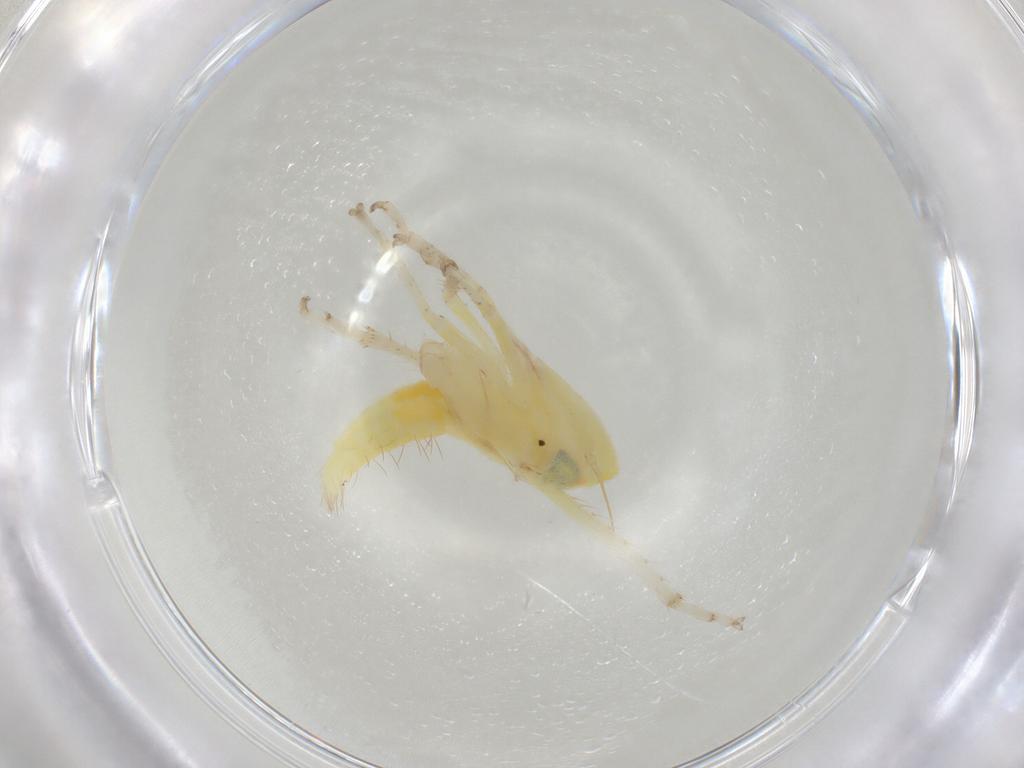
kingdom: Animalia
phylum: Arthropoda
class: Insecta
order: Hemiptera
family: Cicadellidae
